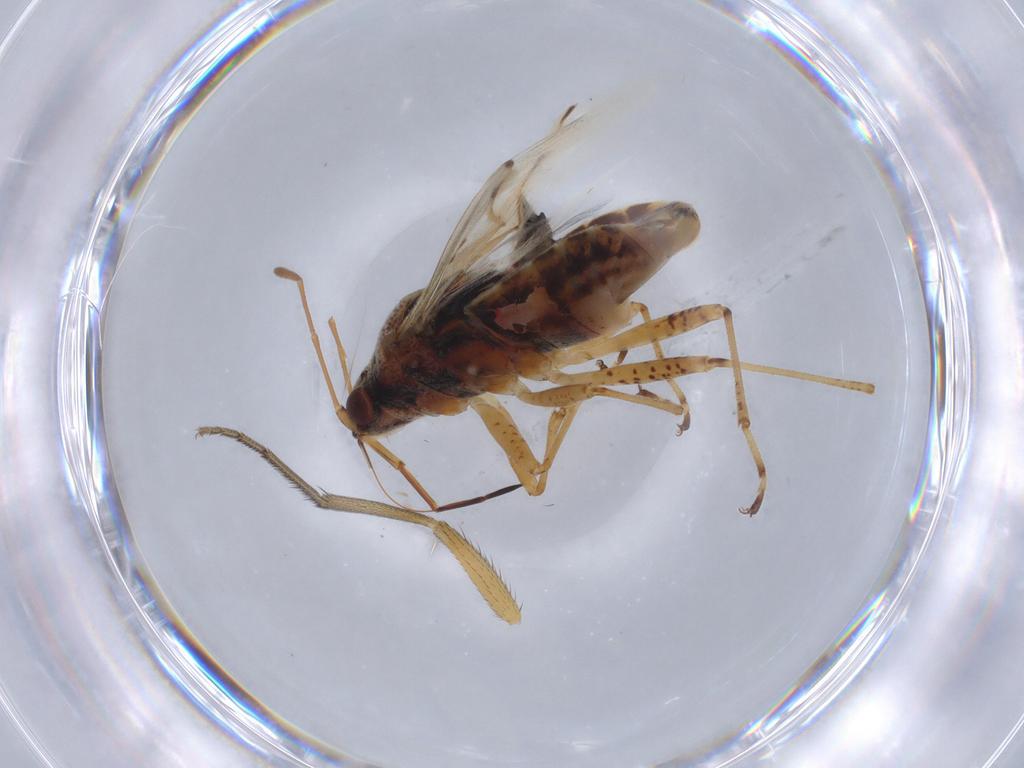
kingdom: Animalia
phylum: Arthropoda
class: Insecta
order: Hemiptera
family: Lygaeidae
